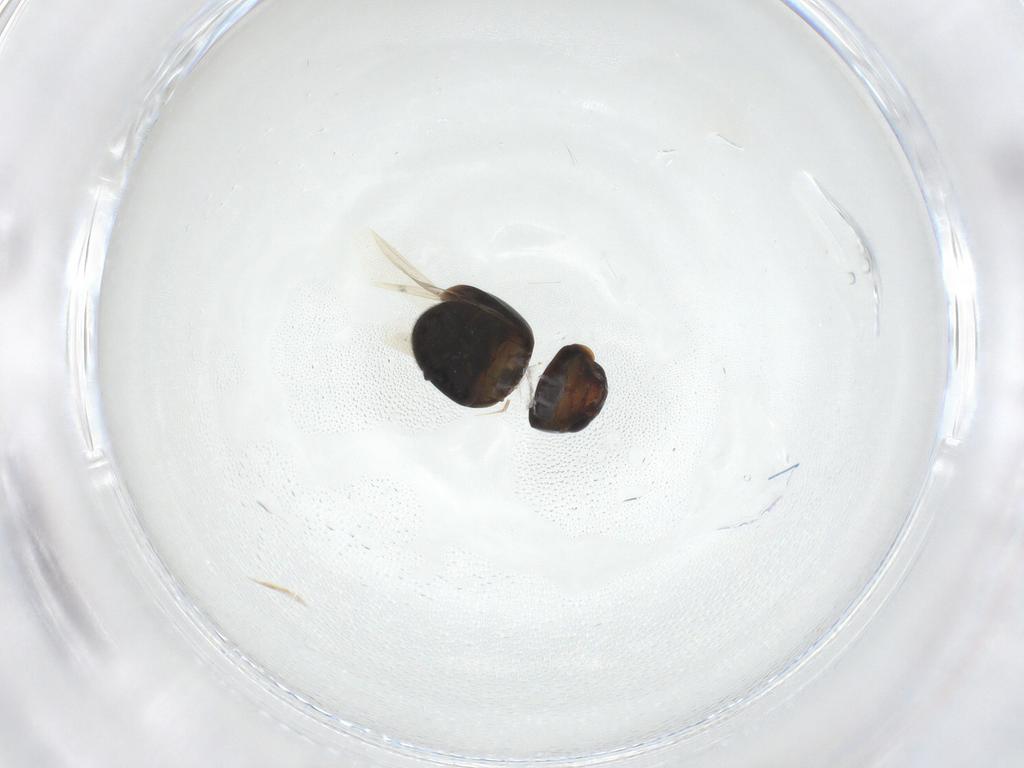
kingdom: Animalia
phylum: Arthropoda
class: Insecta
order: Coleoptera
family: Cybocephalidae
